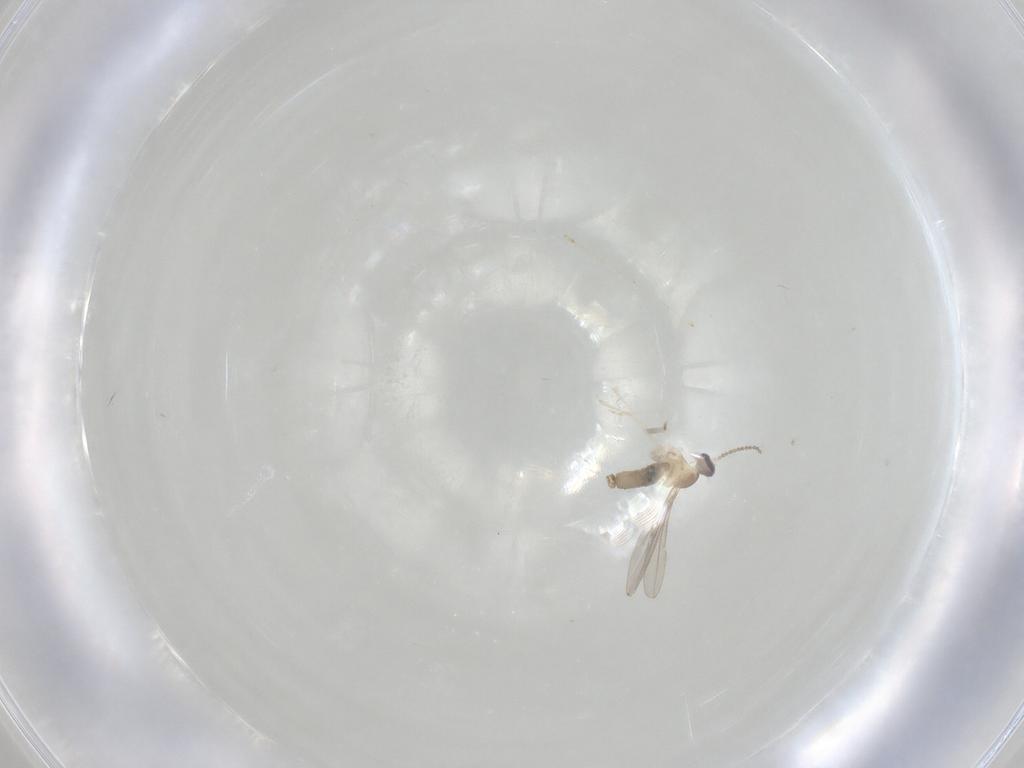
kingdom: Animalia
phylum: Arthropoda
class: Insecta
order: Diptera
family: Cecidomyiidae
